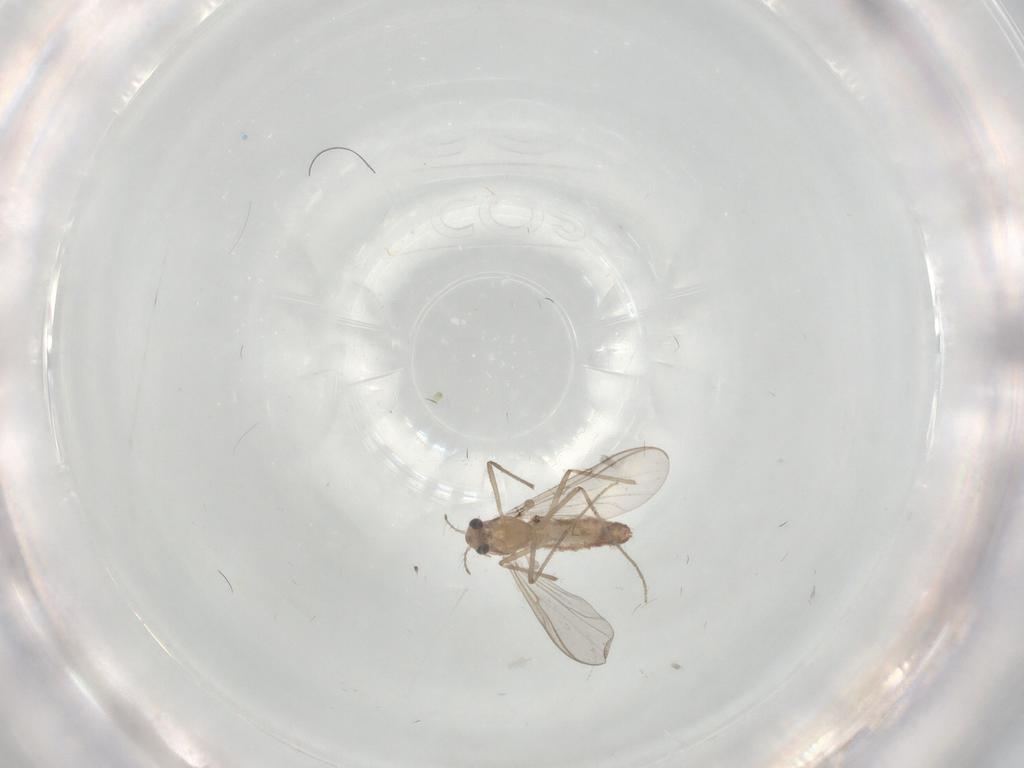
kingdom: Animalia
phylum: Arthropoda
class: Insecta
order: Diptera
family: Chironomidae
